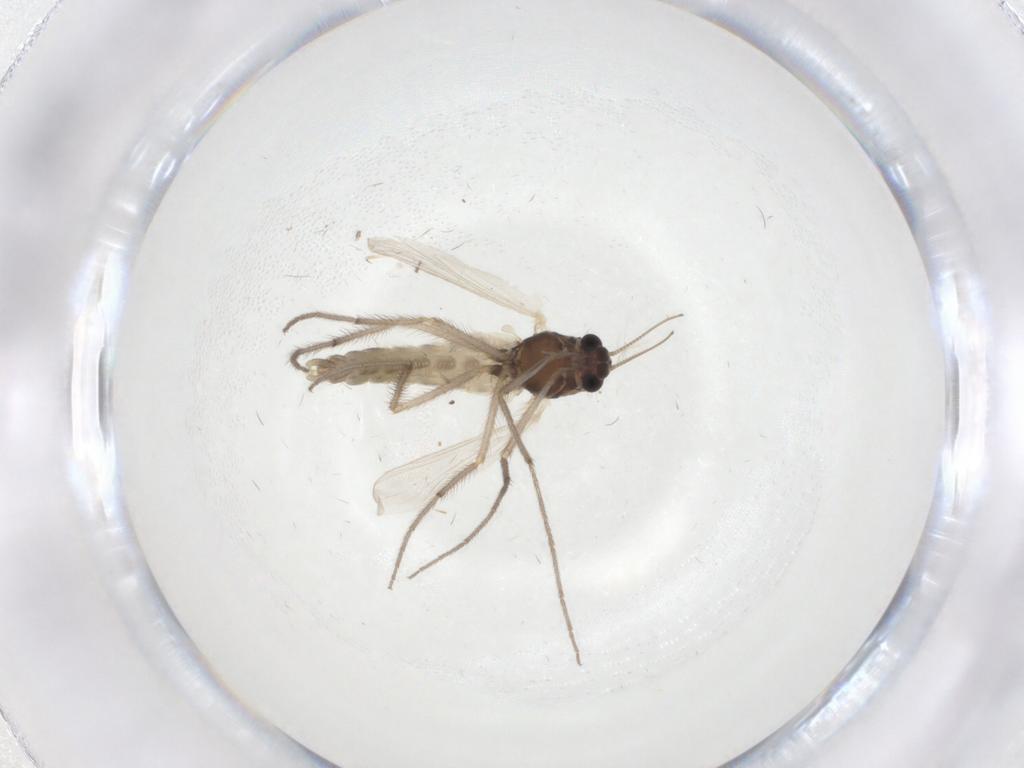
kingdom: Animalia
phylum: Arthropoda
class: Insecta
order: Diptera
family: Chironomidae
